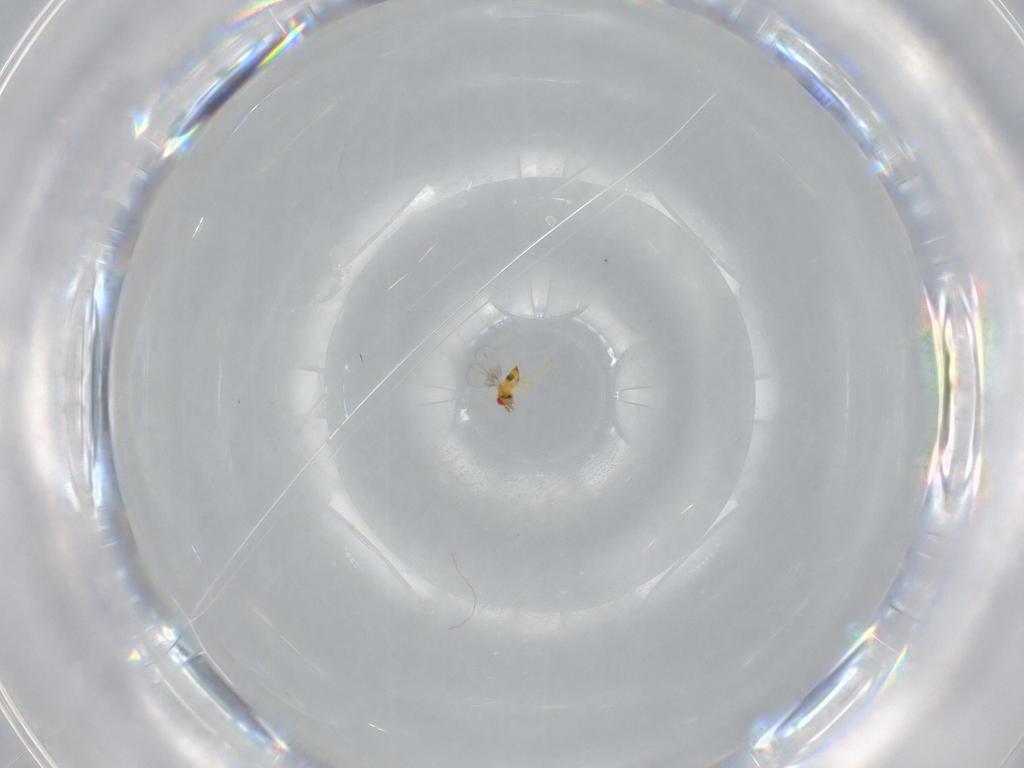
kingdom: Animalia
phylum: Arthropoda
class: Insecta
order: Hymenoptera
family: Trichogrammatidae
